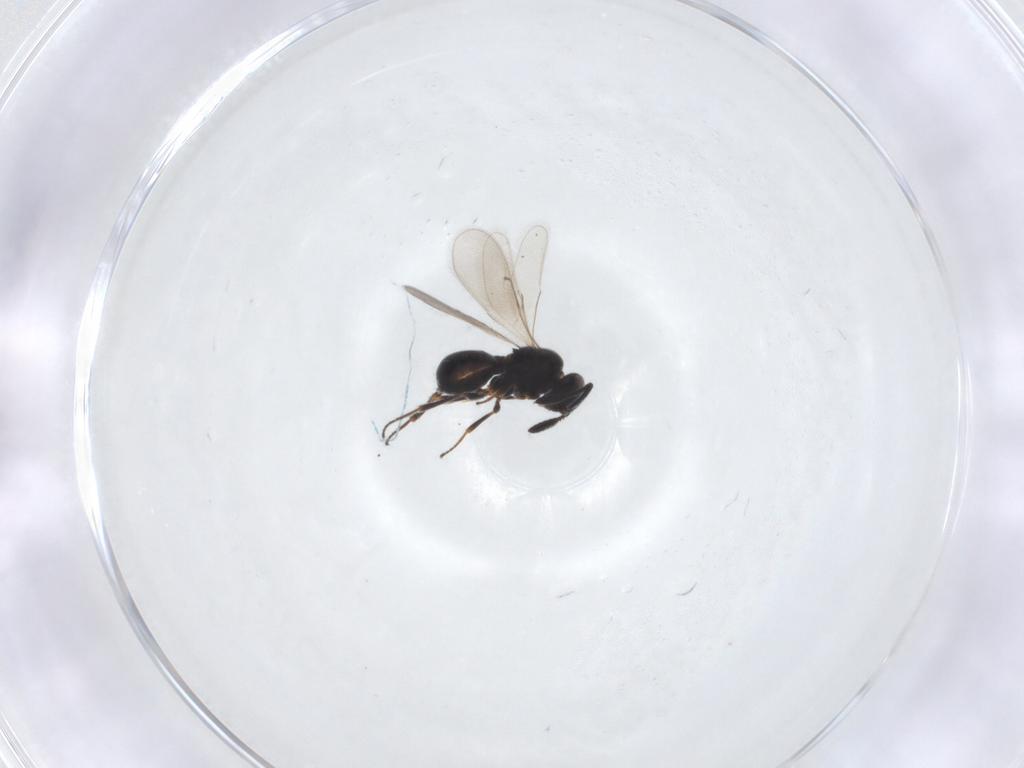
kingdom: Animalia
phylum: Arthropoda
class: Insecta
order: Hymenoptera
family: Scelionidae
